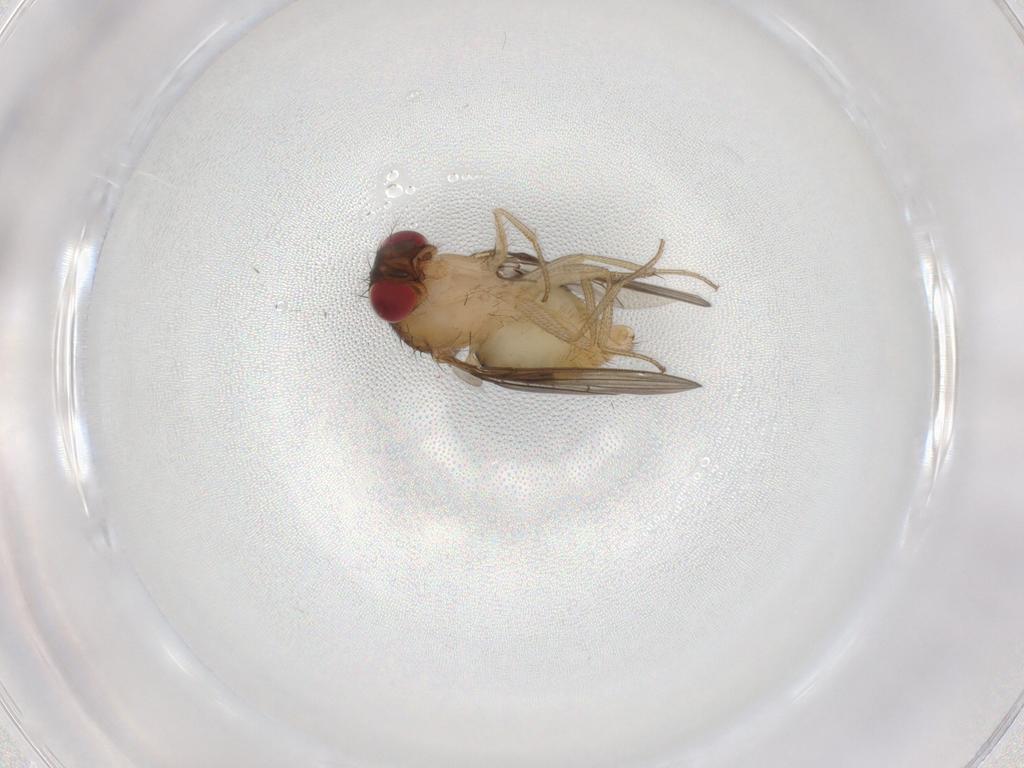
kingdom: Animalia
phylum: Arthropoda
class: Insecta
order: Diptera
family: Drosophilidae
